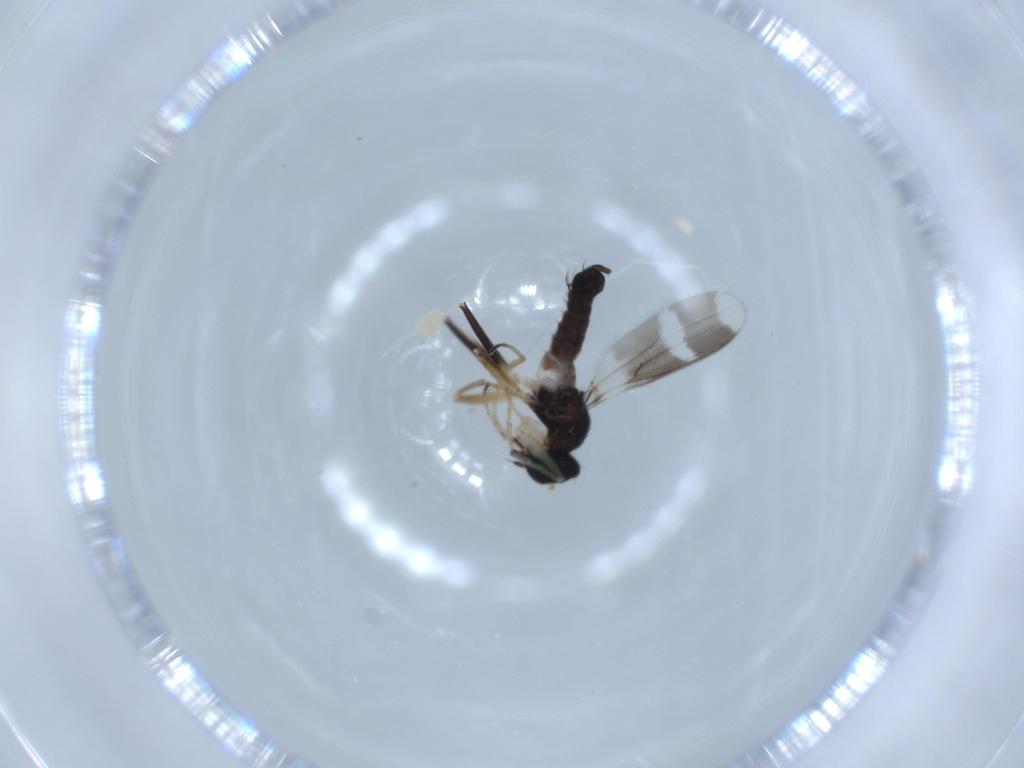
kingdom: Animalia
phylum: Arthropoda
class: Insecta
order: Diptera
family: Hybotidae
